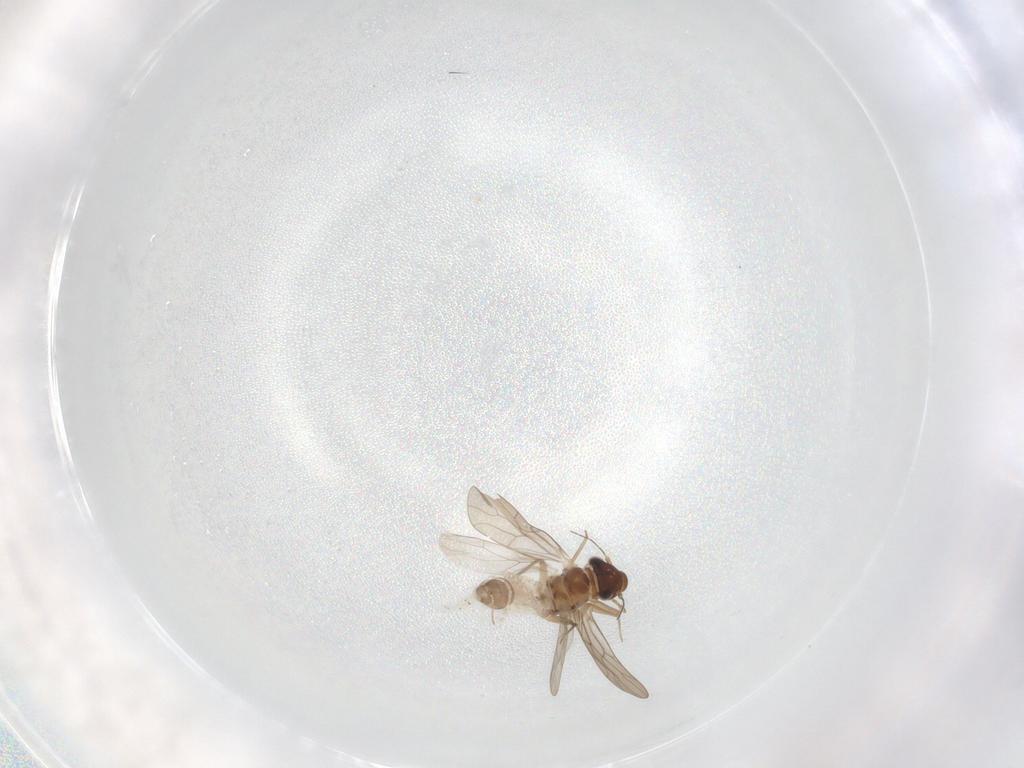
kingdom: Animalia
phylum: Arthropoda
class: Insecta
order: Psocodea
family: Lepidopsocidae
